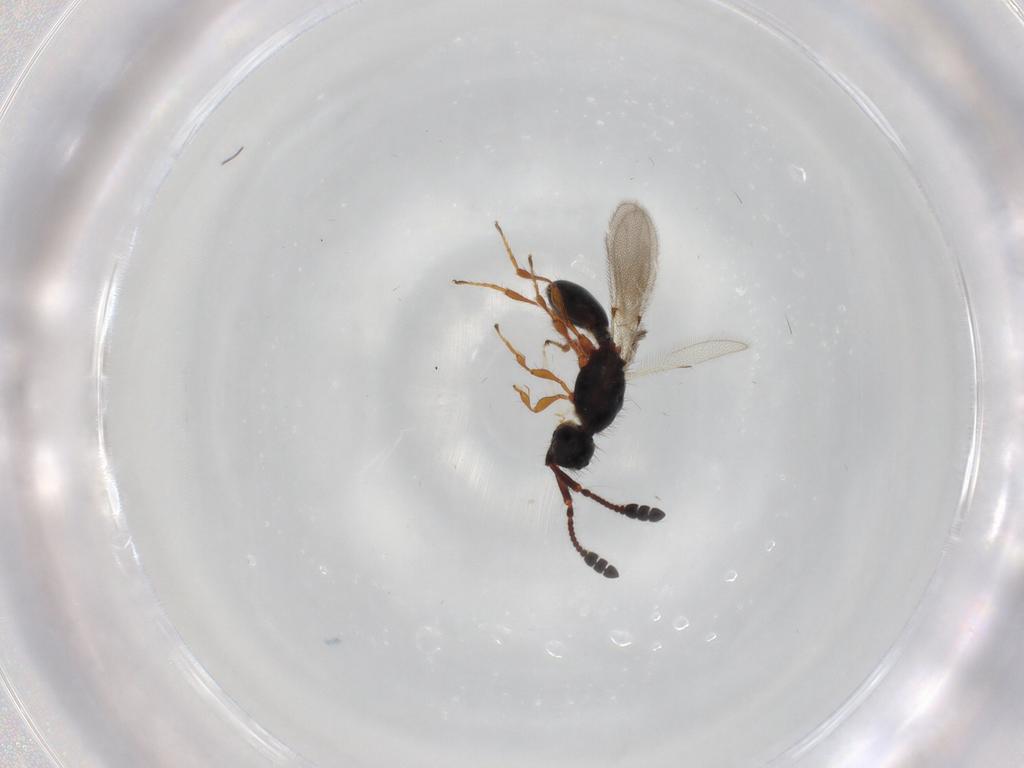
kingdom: Animalia
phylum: Arthropoda
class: Insecta
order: Hymenoptera
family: Diapriidae
